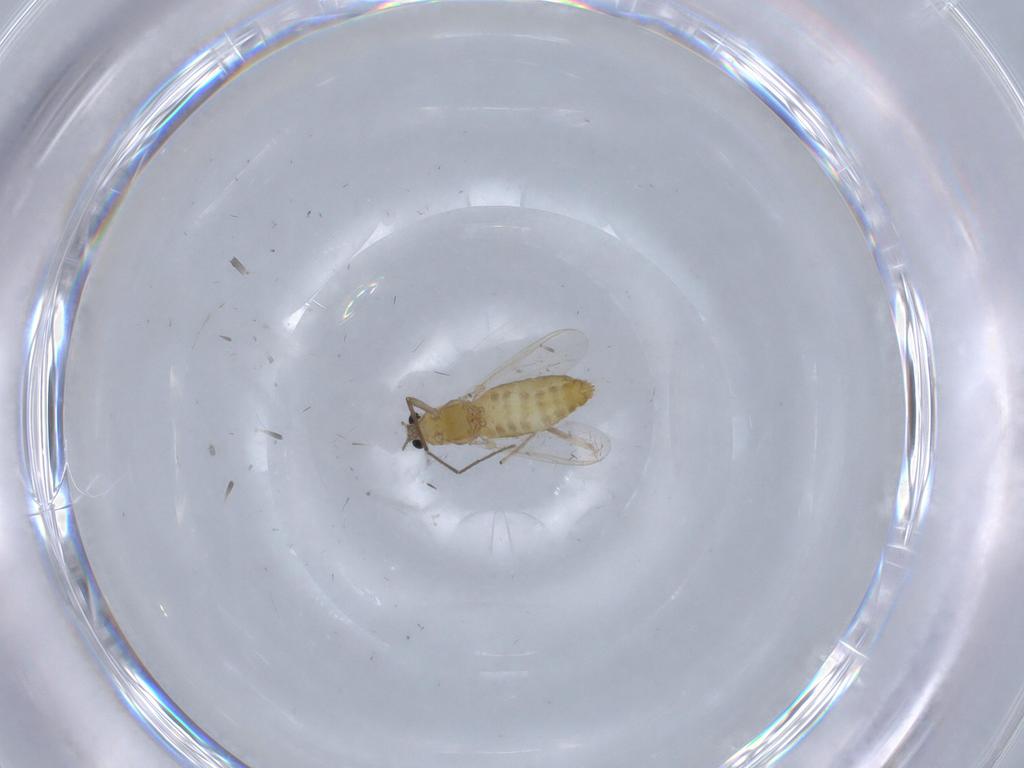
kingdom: Animalia
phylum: Arthropoda
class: Insecta
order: Diptera
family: Chironomidae
